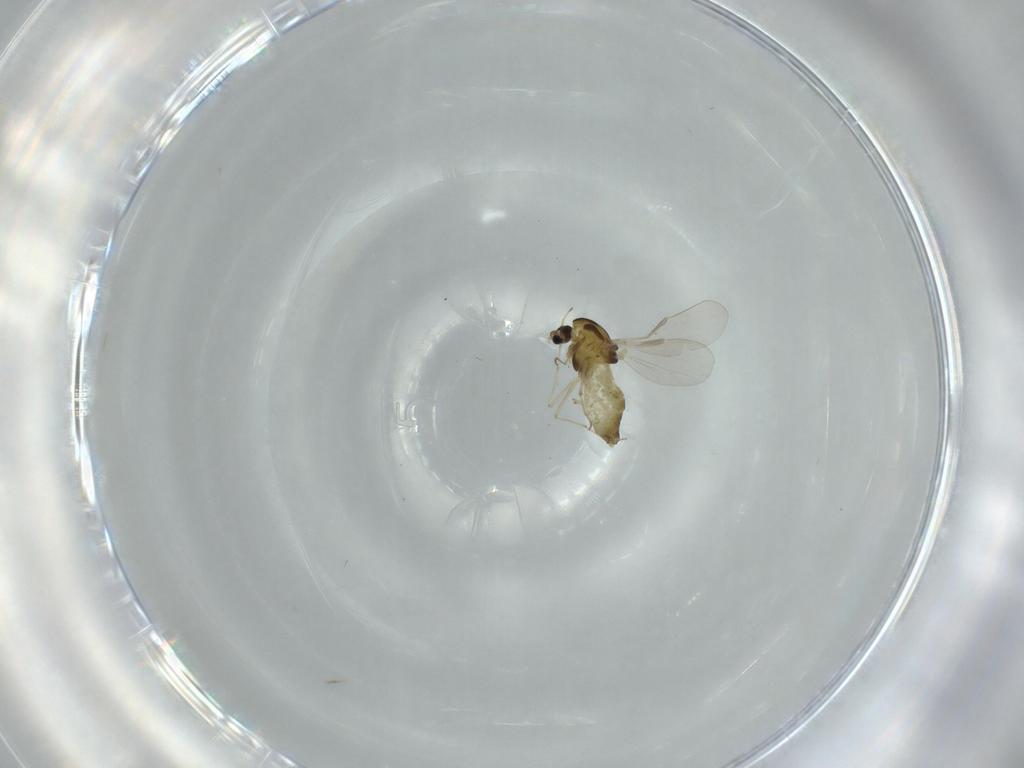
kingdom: Animalia
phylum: Arthropoda
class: Insecta
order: Diptera
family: Chironomidae
